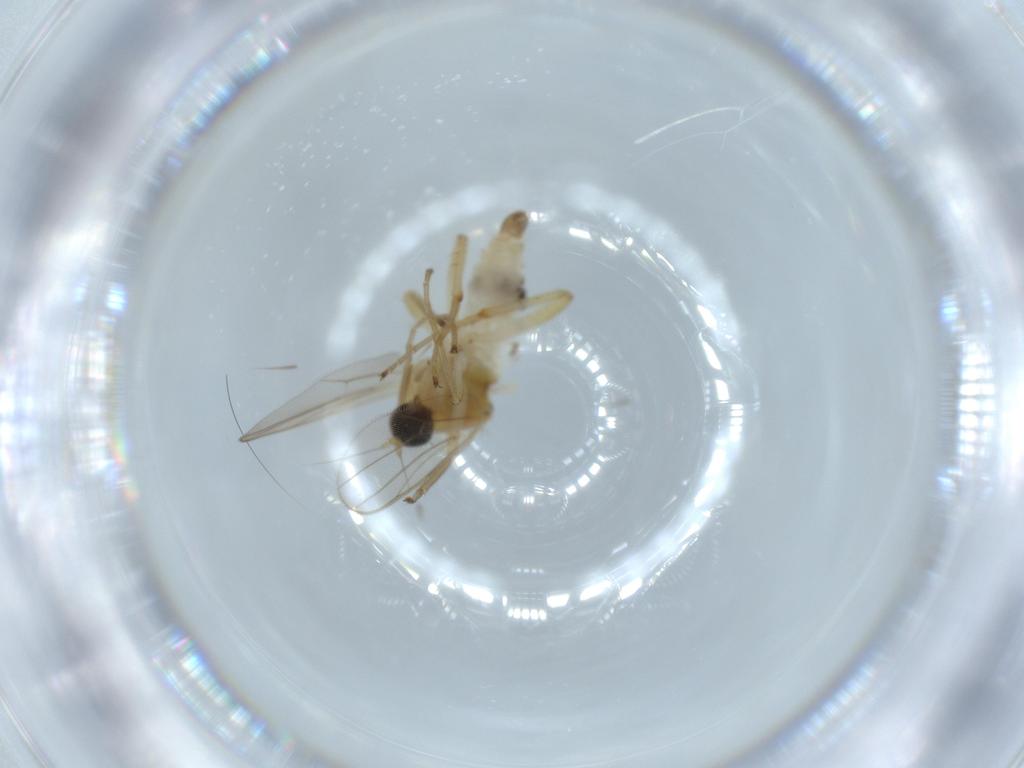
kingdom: Animalia
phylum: Arthropoda
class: Insecta
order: Diptera
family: Hybotidae
